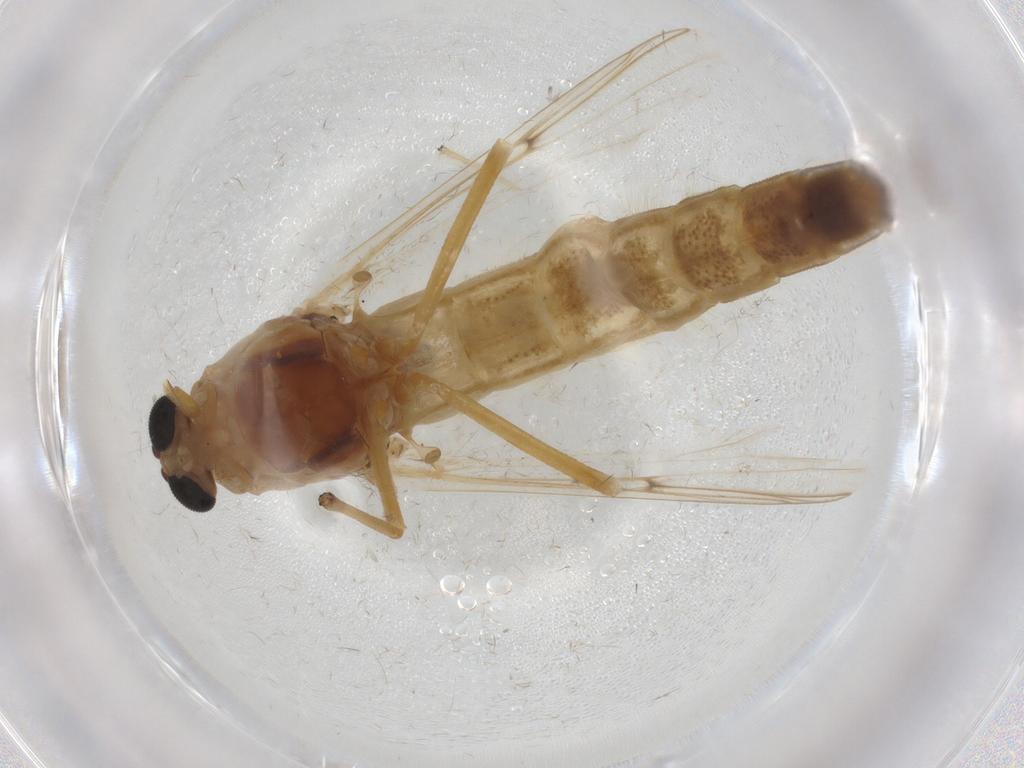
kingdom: Animalia
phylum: Arthropoda
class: Insecta
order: Diptera
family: Chironomidae
